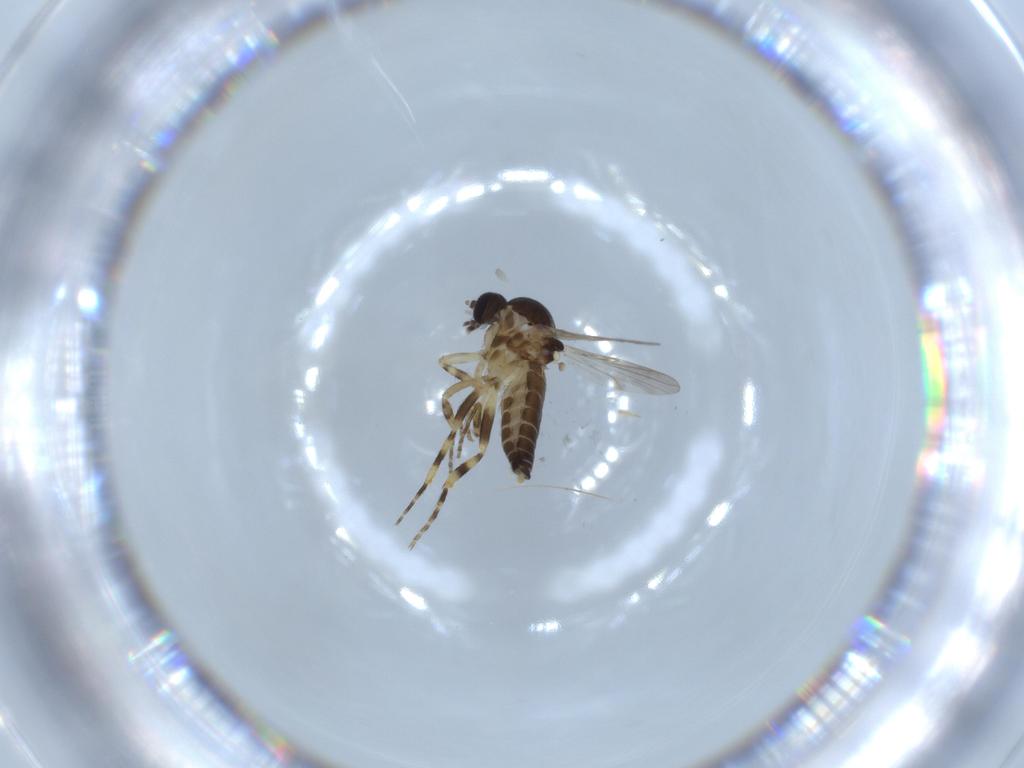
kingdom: Animalia
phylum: Arthropoda
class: Insecta
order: Diptera
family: Ceratopogonidae
